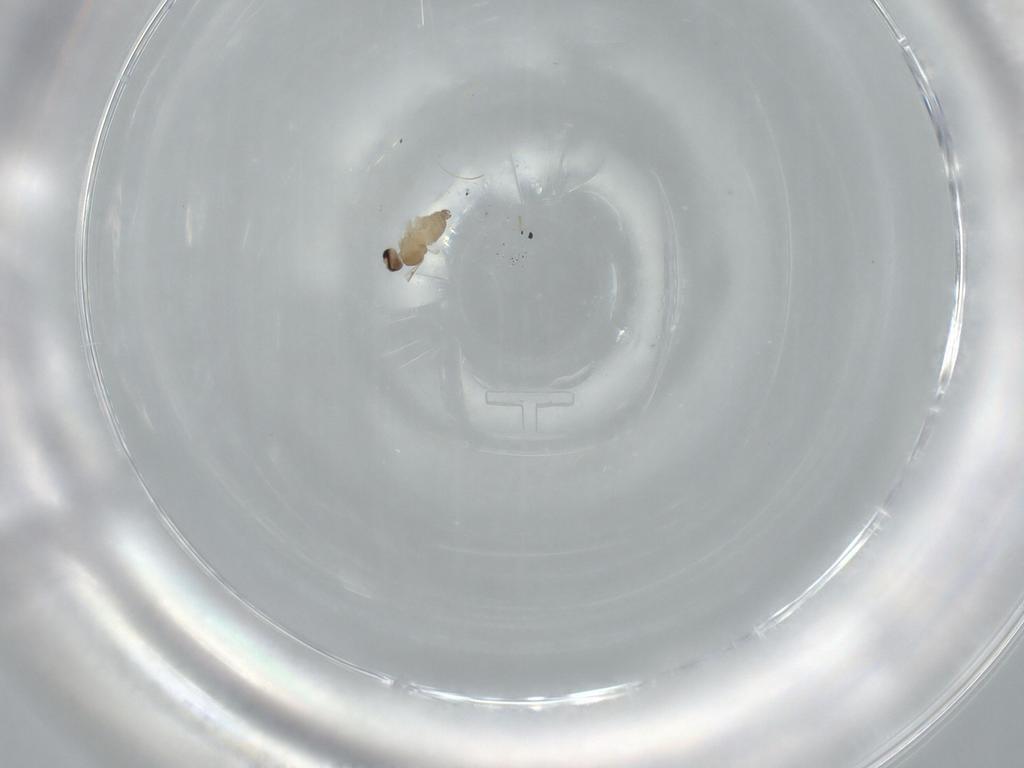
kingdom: Animalia
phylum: Arthropoda
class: Insecta
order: Diptera
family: Cecidomyiidae
